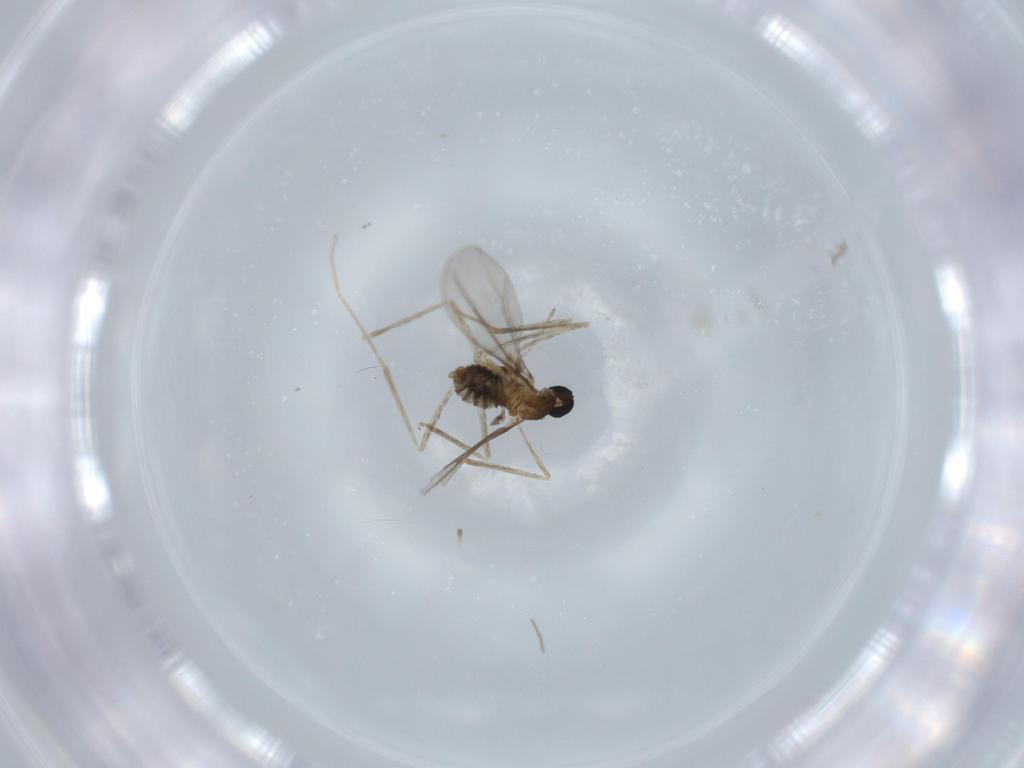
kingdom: Animalia
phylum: Arthropoda
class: Insecta
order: Diptera
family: Cecidomyiidae
